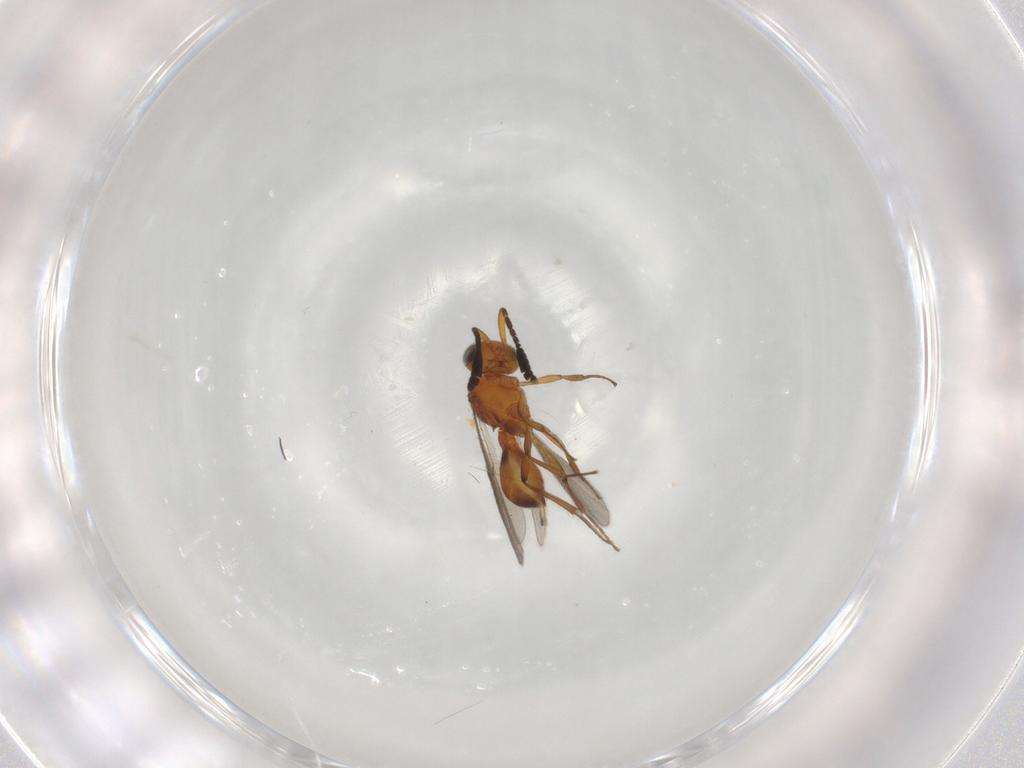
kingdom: Animalia
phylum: Arthropoda
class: Insecta
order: Hymenoptera
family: Scelionidae
